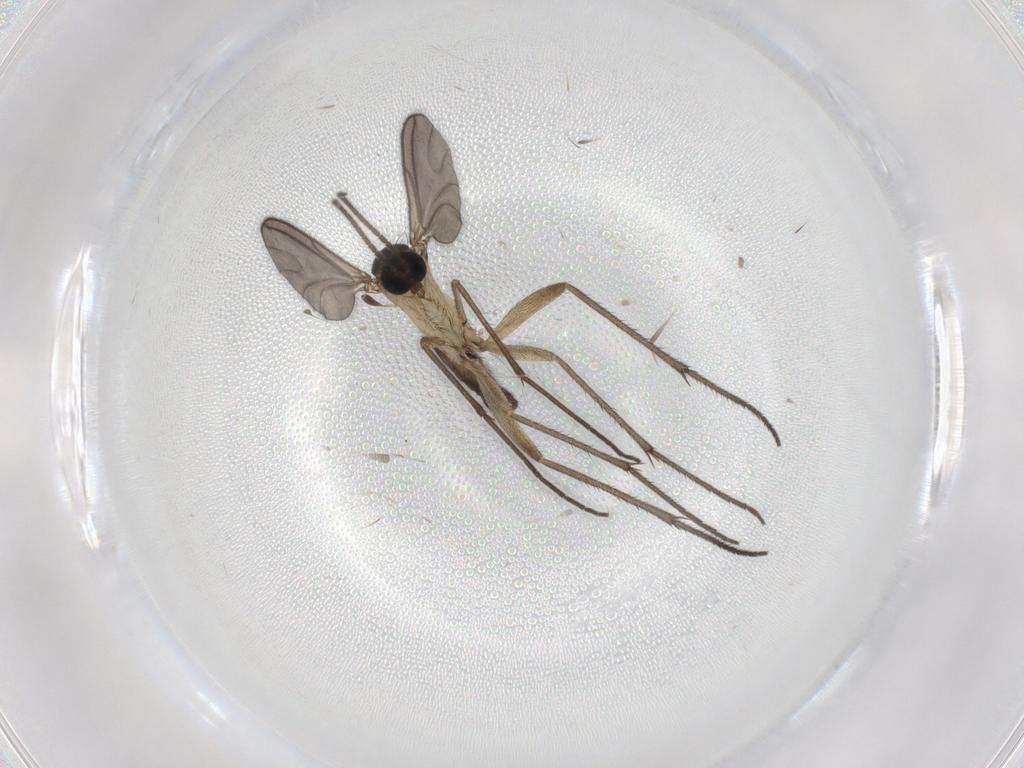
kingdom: Animalia
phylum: Arthropoda
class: Insecta
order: Diptera
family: Sciaridae
